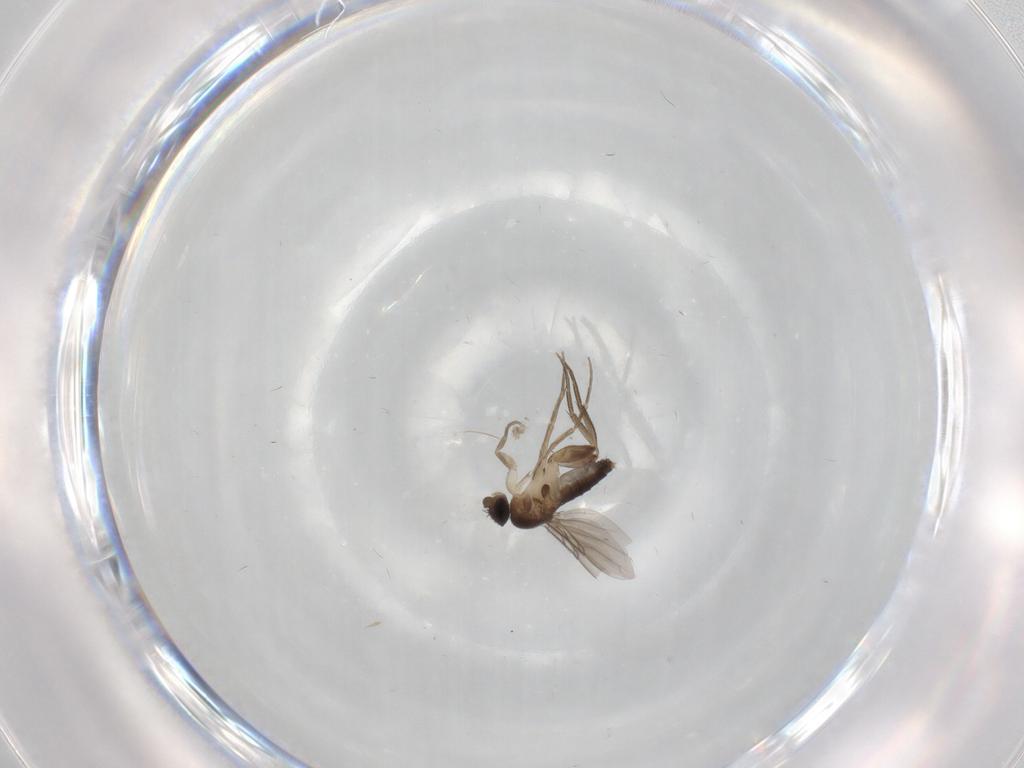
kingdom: Animalia
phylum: Arthropoda
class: Insecta
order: Diptera
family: Phoridae
